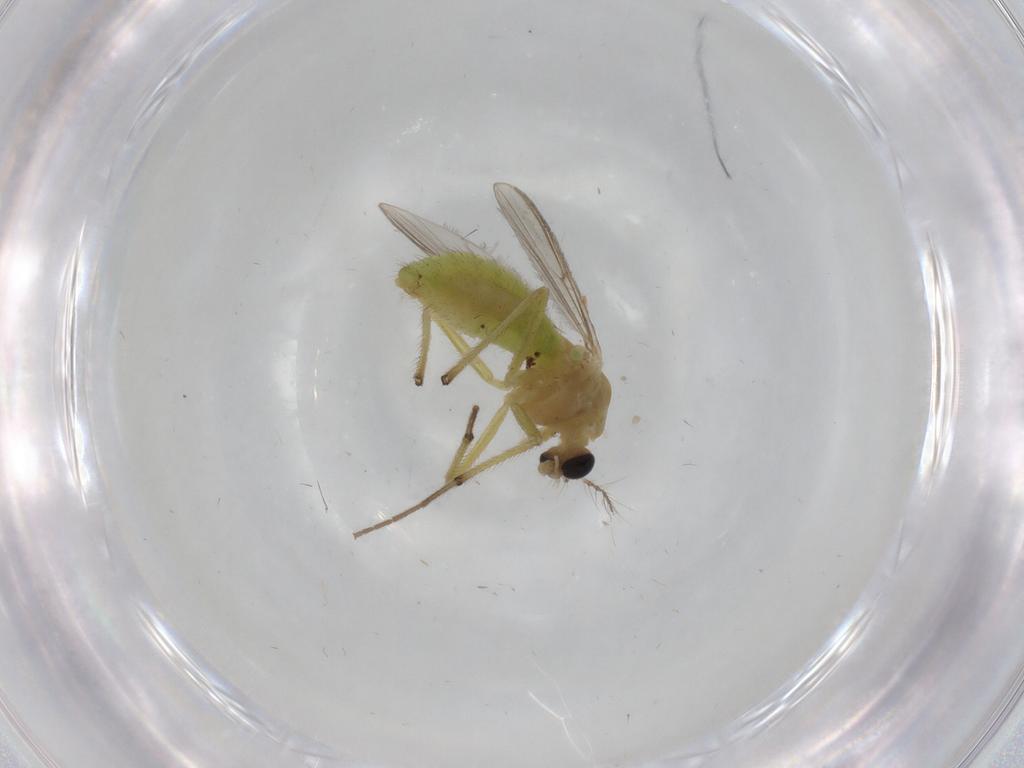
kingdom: Animalia
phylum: Arthropoda
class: Insecta
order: Diptera
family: Chironomidae
